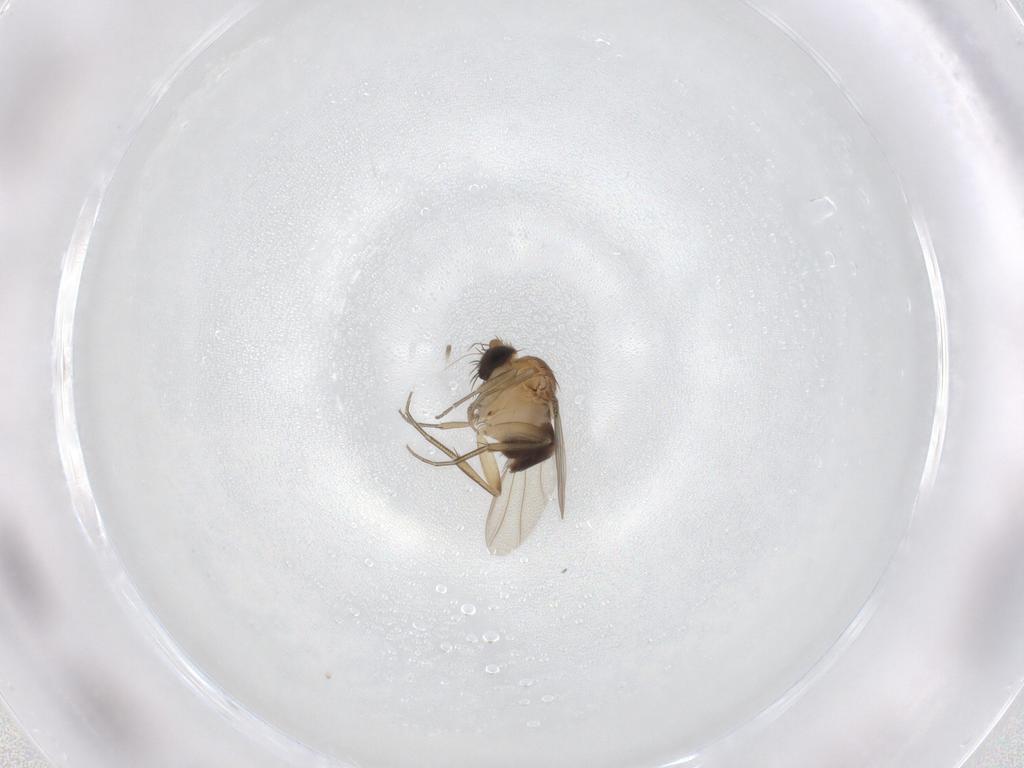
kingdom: Animalia
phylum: Arthropoda
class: Insecta
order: Diptera
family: Phoridae
